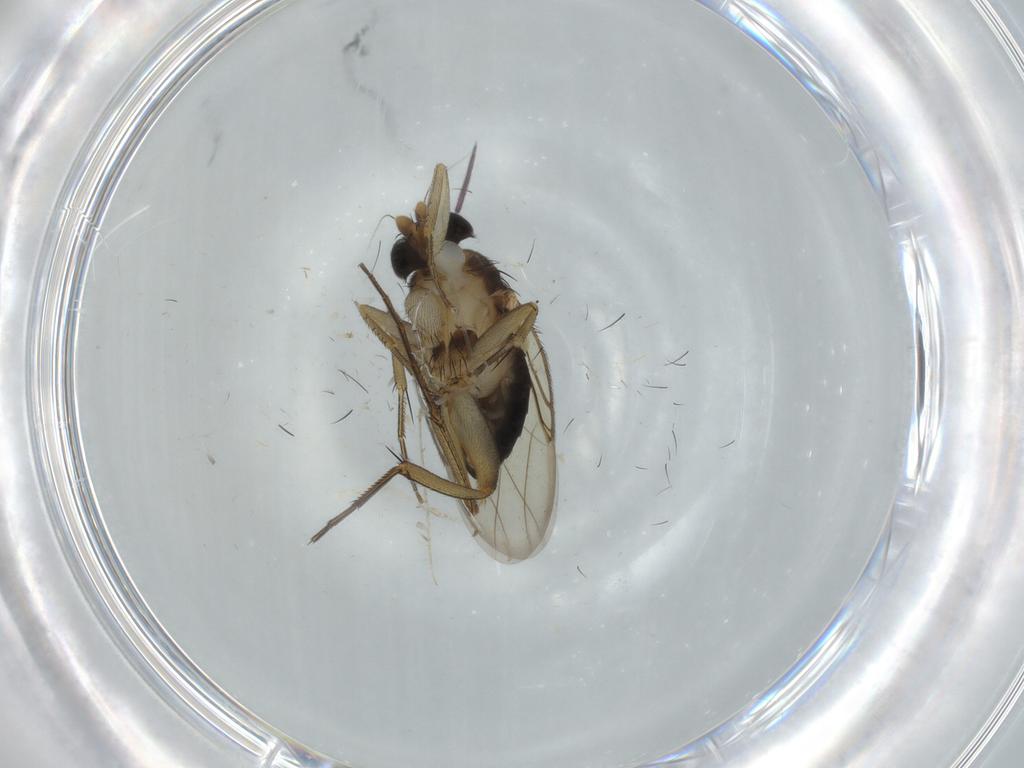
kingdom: Animalia
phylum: Arthropoda
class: Insecta
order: Diptera
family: Phoridae
